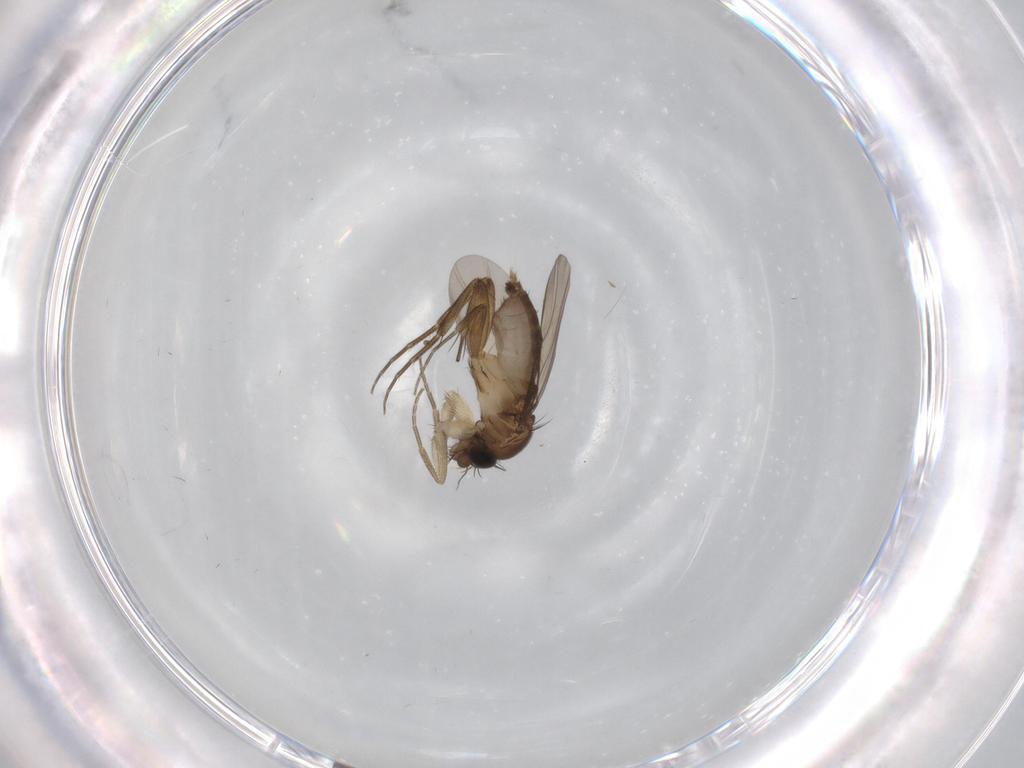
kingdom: Animalia
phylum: Arthropoda
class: Insecta
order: Diptera
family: Phoridae
